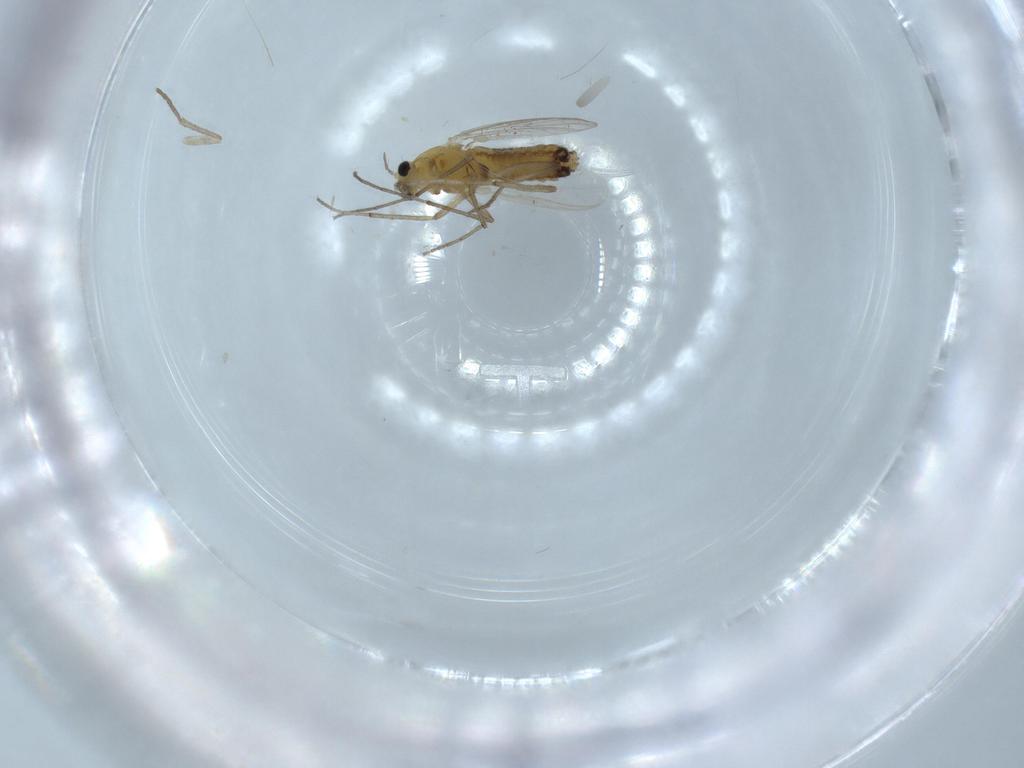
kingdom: Animalia
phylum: Arthropoda
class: Insecta
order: Diptera
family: Chironomidae
